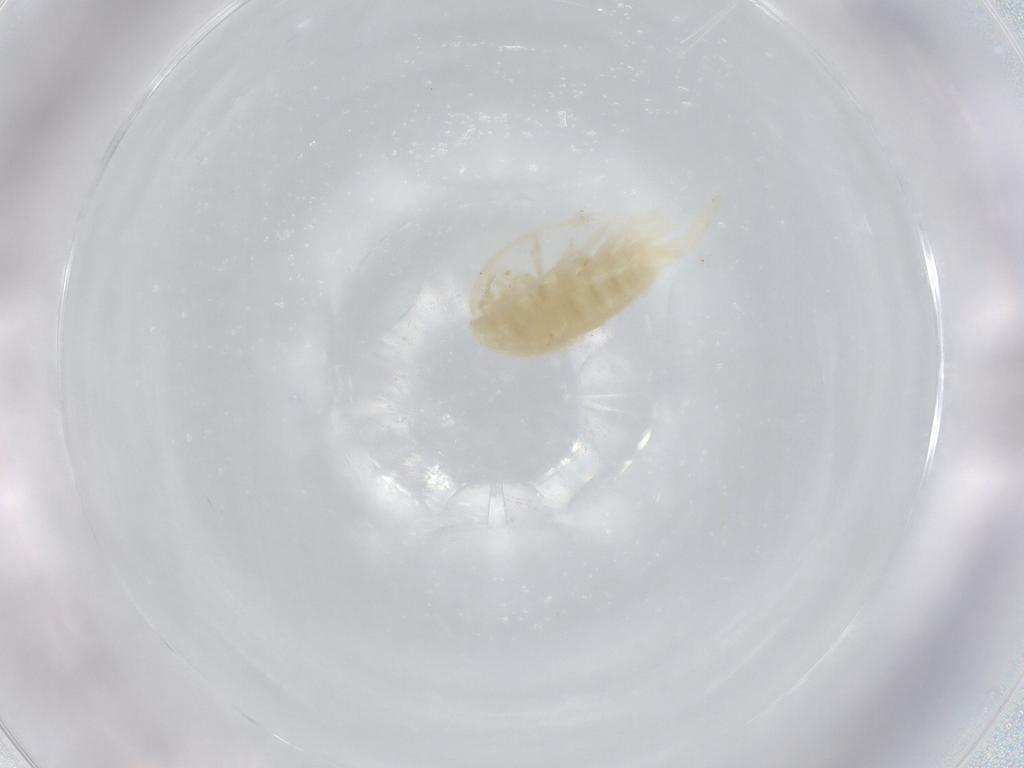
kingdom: Animalia
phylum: Arthropoda
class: Copepoda
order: Calanoida
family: Diaptomidae
